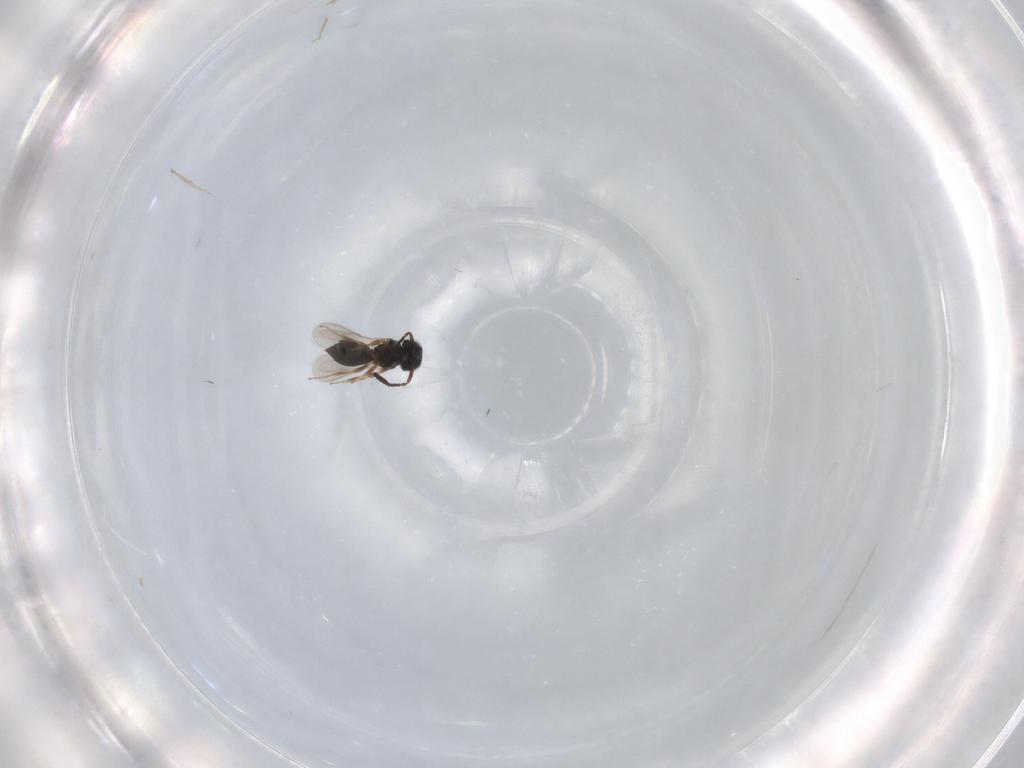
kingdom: Animalia
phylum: Arthropoda
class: Insecta
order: Hymenoptera
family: Scelionidae
